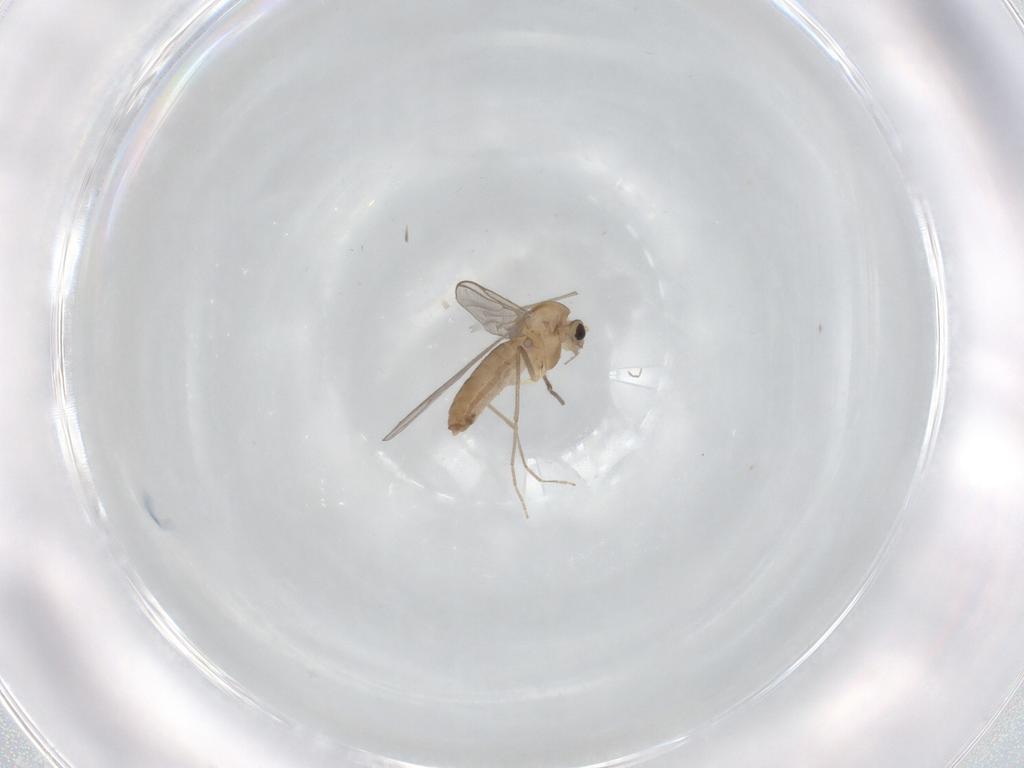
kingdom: Animalia
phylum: Arthropoda
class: Insecta
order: Diptera
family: Chironomidae
